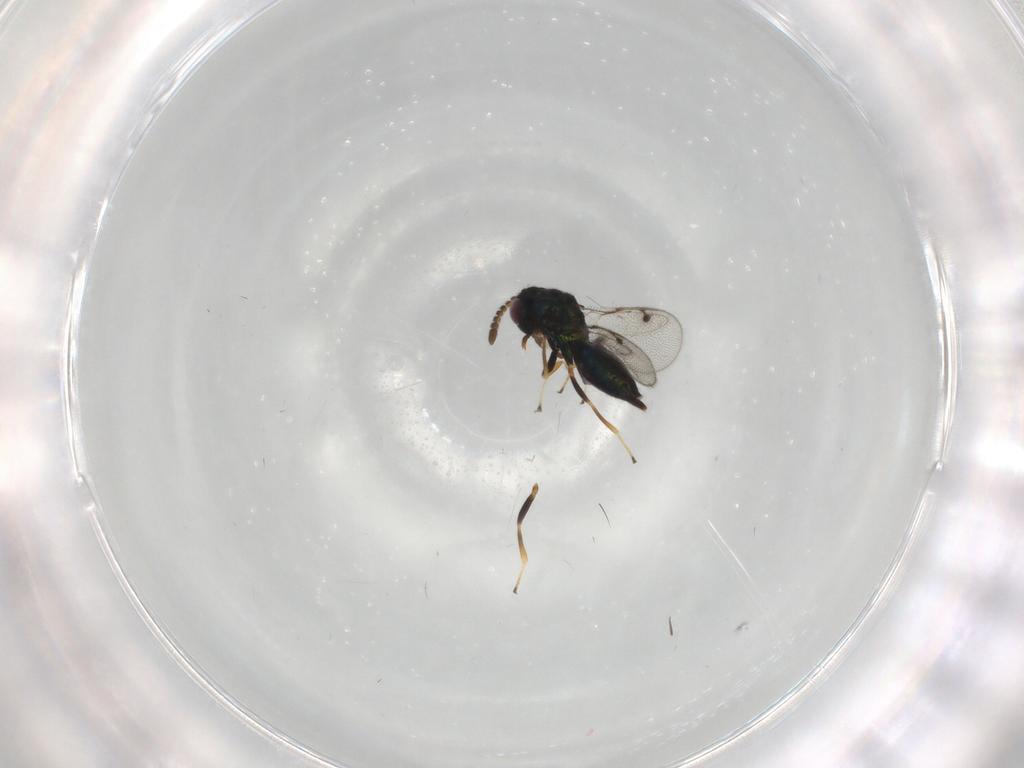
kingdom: Animalia
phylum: Arthropoda
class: Insecta
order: Hymenoptera
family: Pirenidae
